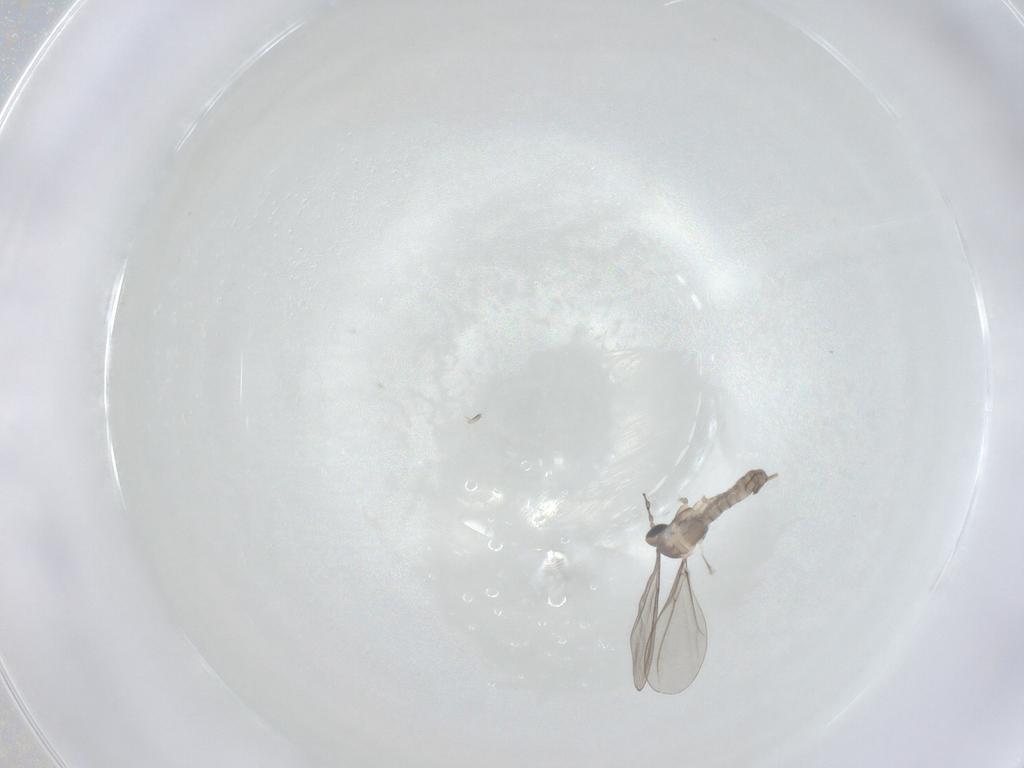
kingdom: Animalia
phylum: Arthropoda
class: Insecta
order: Diptera
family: Cecidomyiidae
